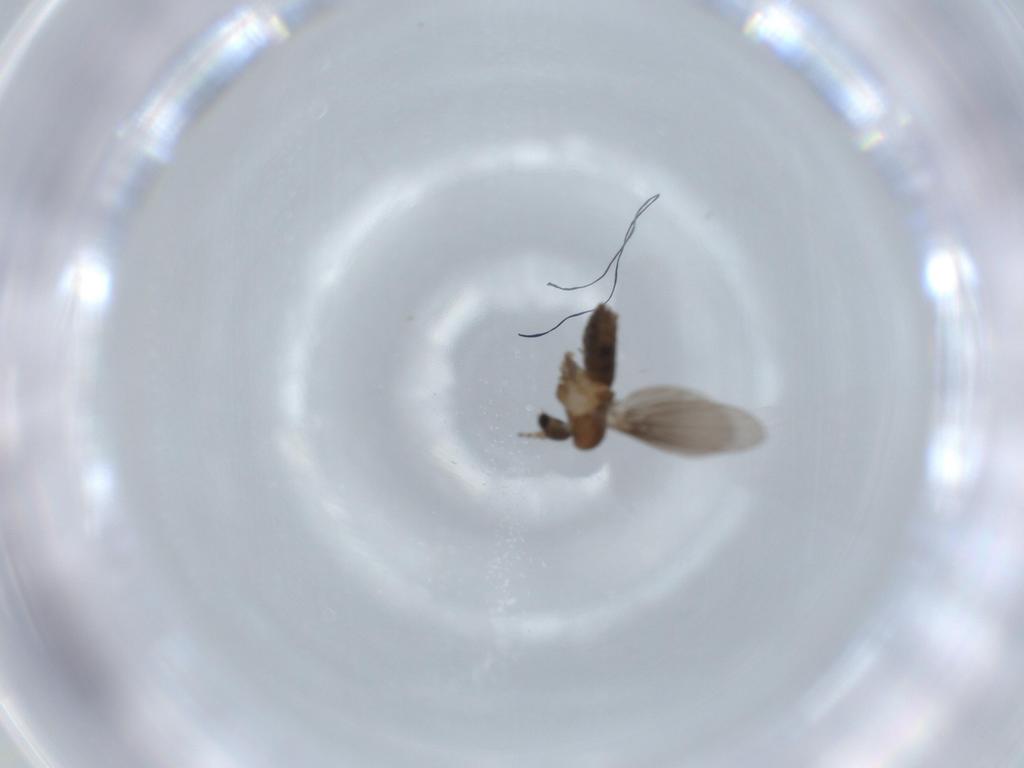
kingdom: Animalia
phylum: Arthropoda
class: Insecta
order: Diptera
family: Psychodidae
